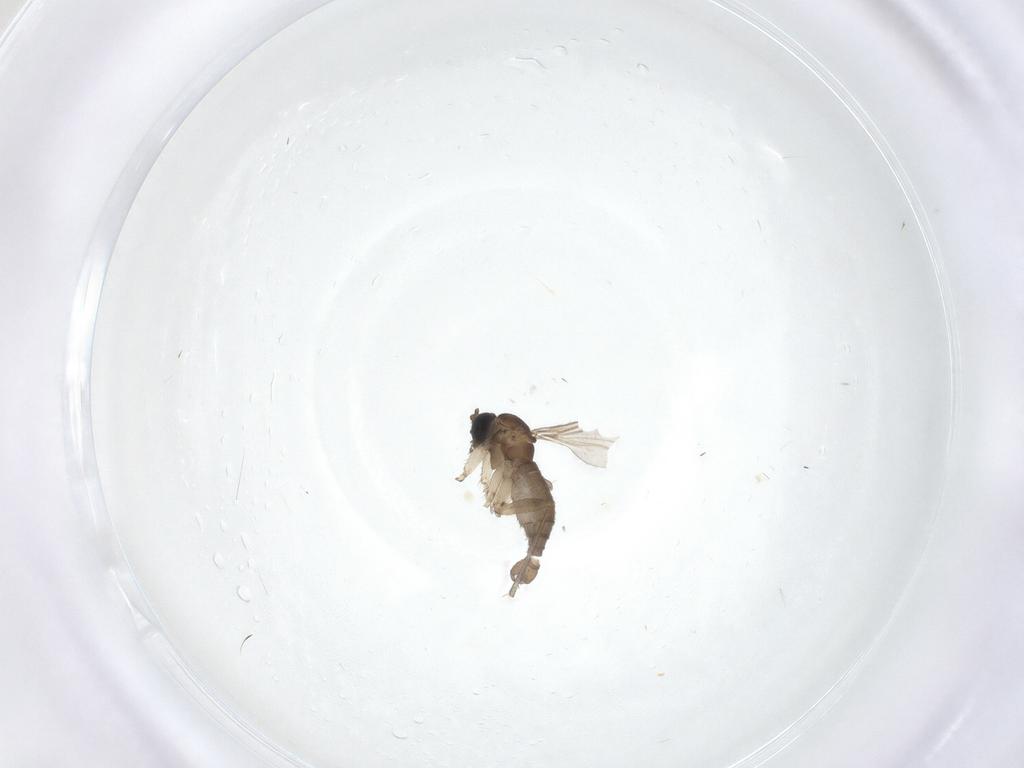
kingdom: Animalia
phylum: Arthropoda
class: Insecta
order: Diptera
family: Sciaridae
